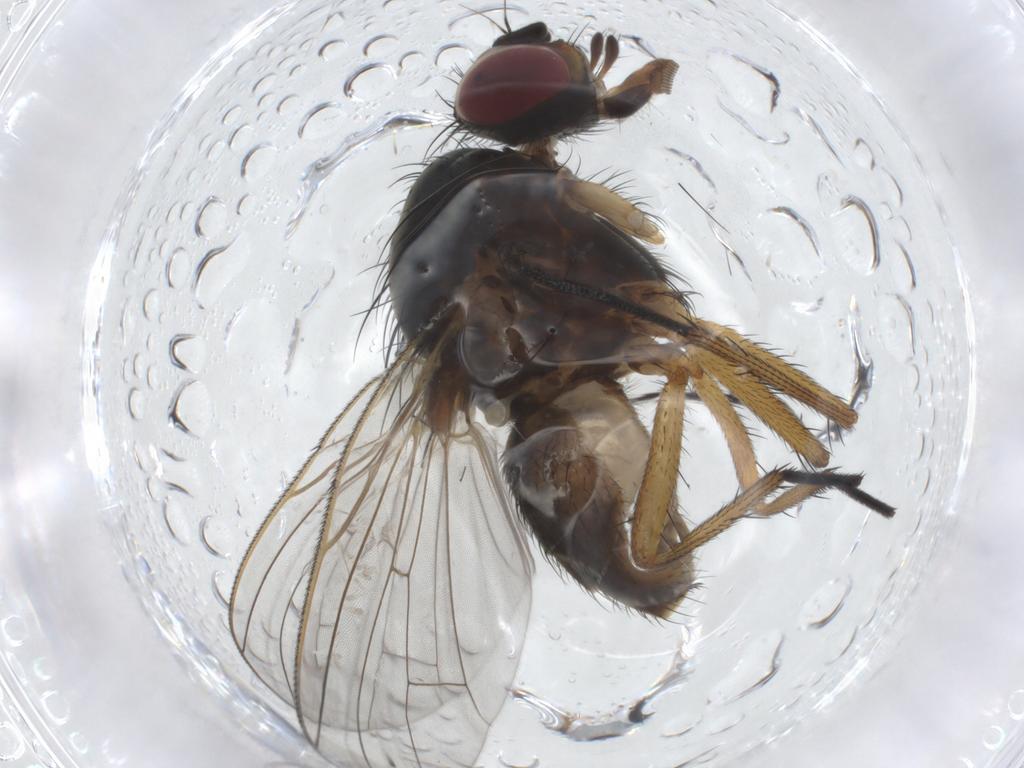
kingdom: Animalia
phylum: Arthropoda
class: Insecta
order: Diptera
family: Anthomyiidae
